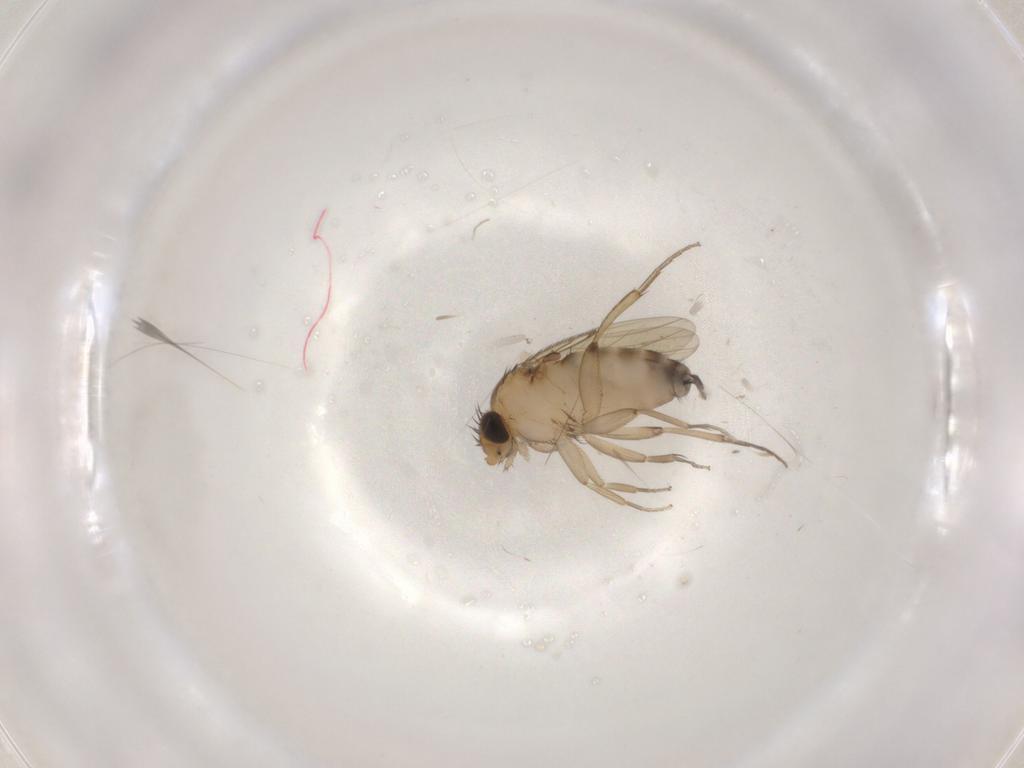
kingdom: Animalia
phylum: Arthropoda
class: Insecta
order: Diptera
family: Phoridae
